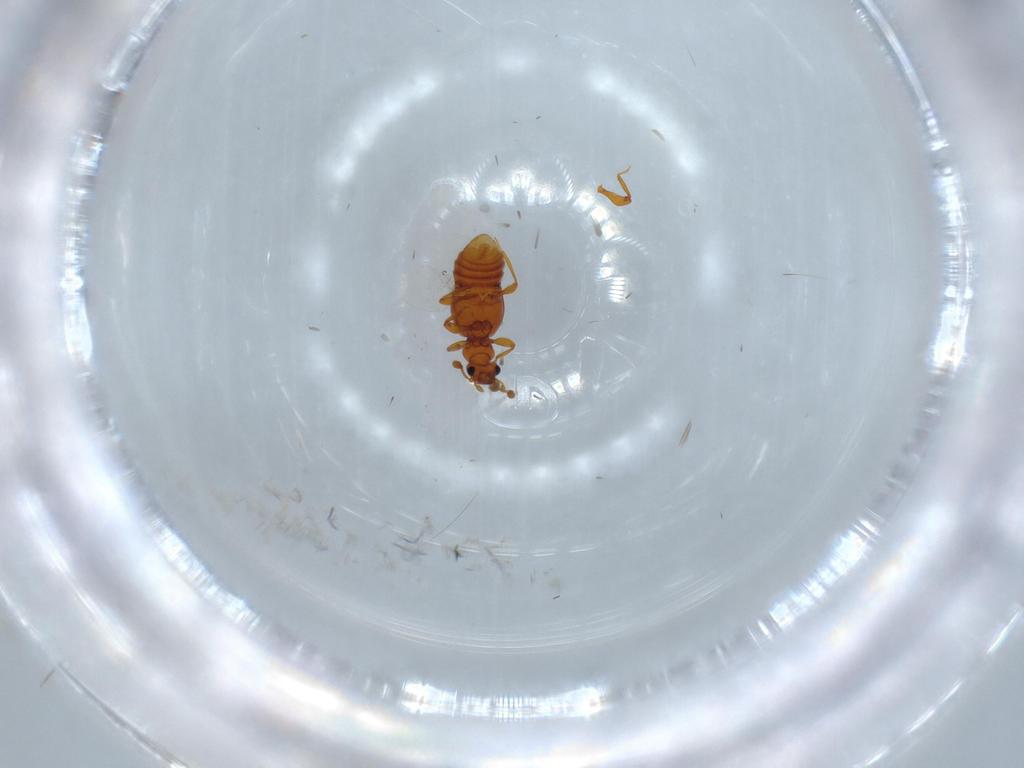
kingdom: Animalia
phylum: Arthropoda
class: Insecta
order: Coleoptera
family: Staphylinidae
